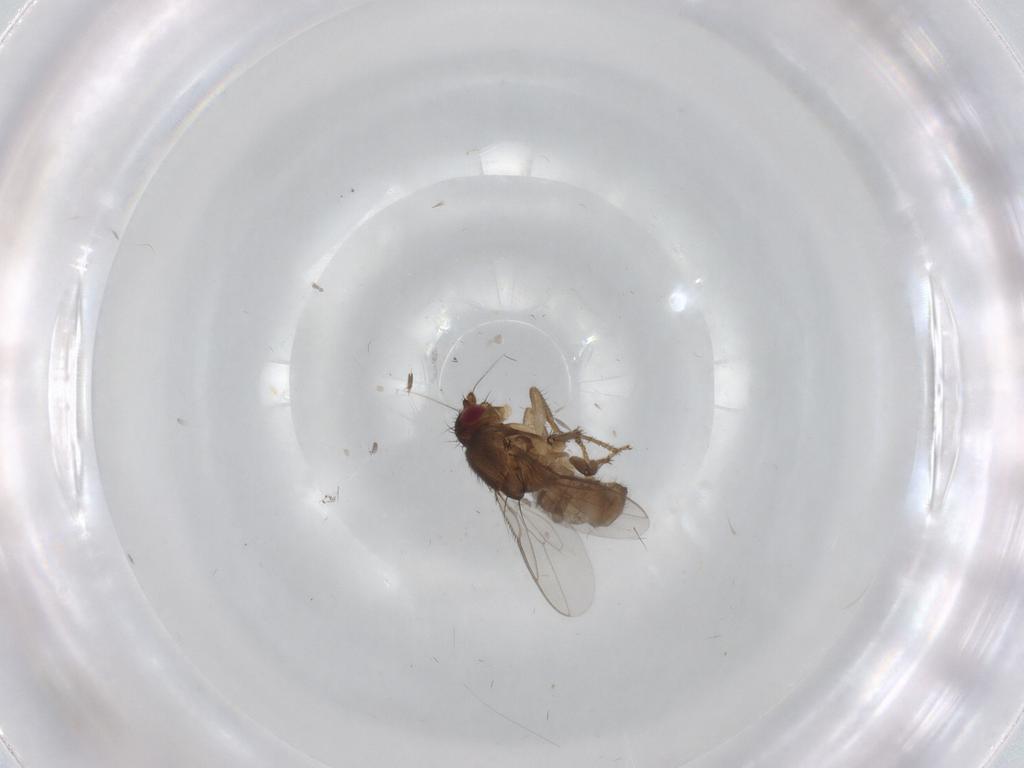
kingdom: Animalia
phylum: Arthropoda
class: Insecta
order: Diptera
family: Sphaeroceridae
